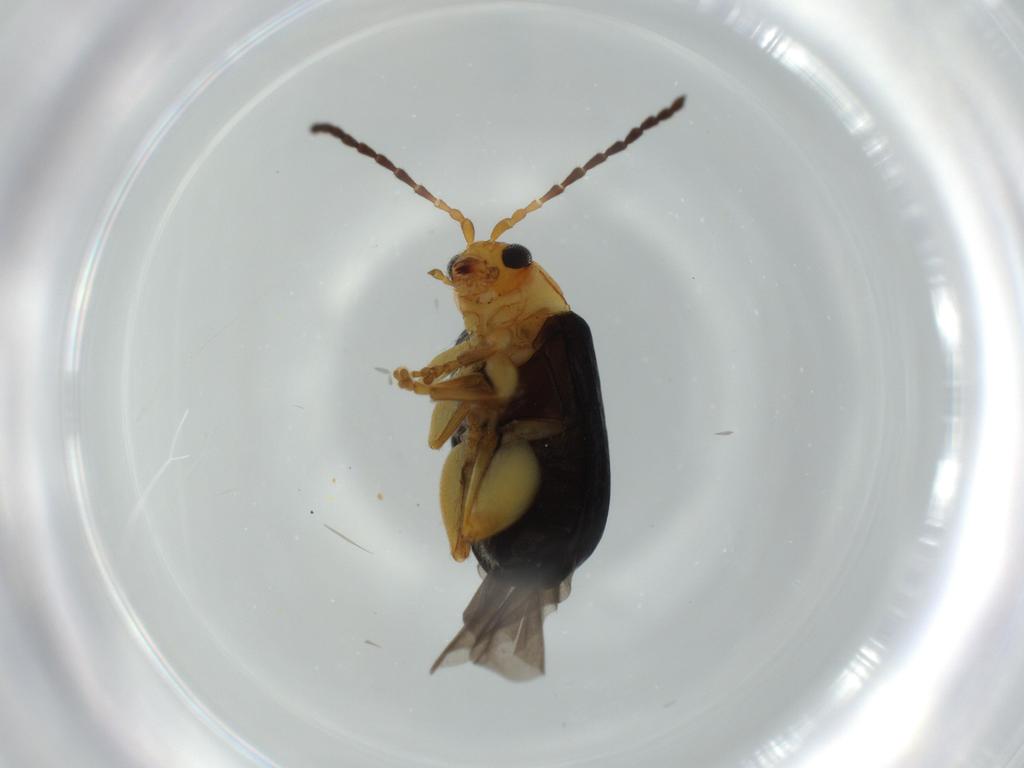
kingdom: Animalia
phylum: Arthropoda
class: Insecta
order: Coleoptera
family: Chrysomelidae
